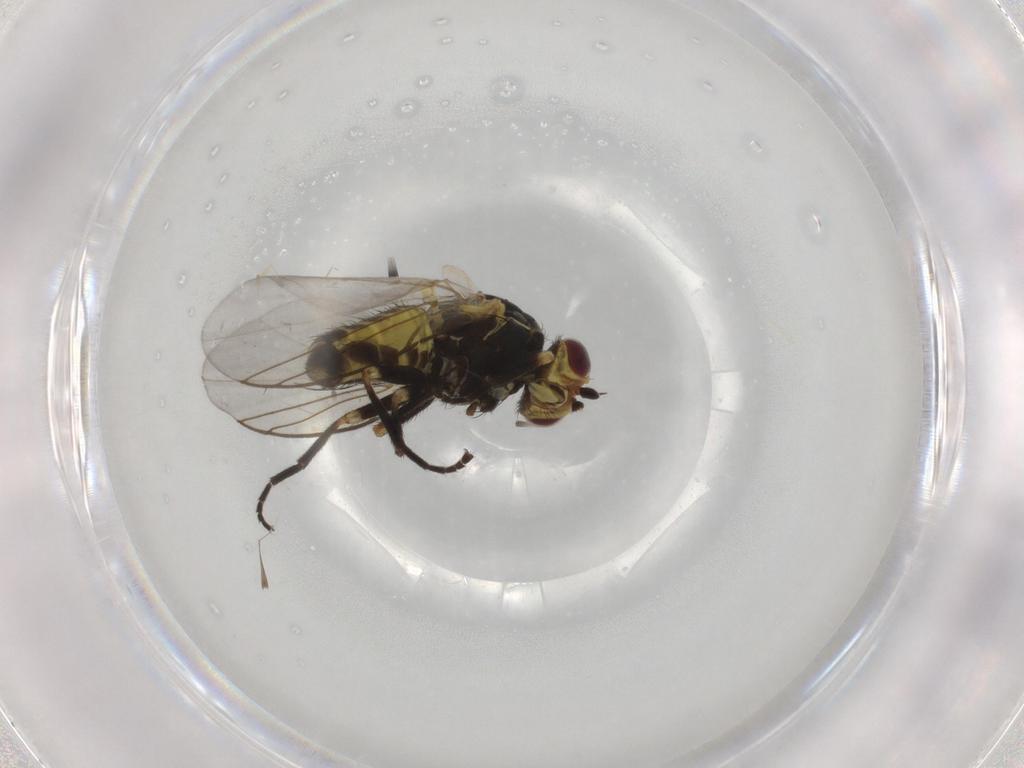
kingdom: Animalia
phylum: Arthropoda
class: Insecta
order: Diptera
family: Agromyzidae
